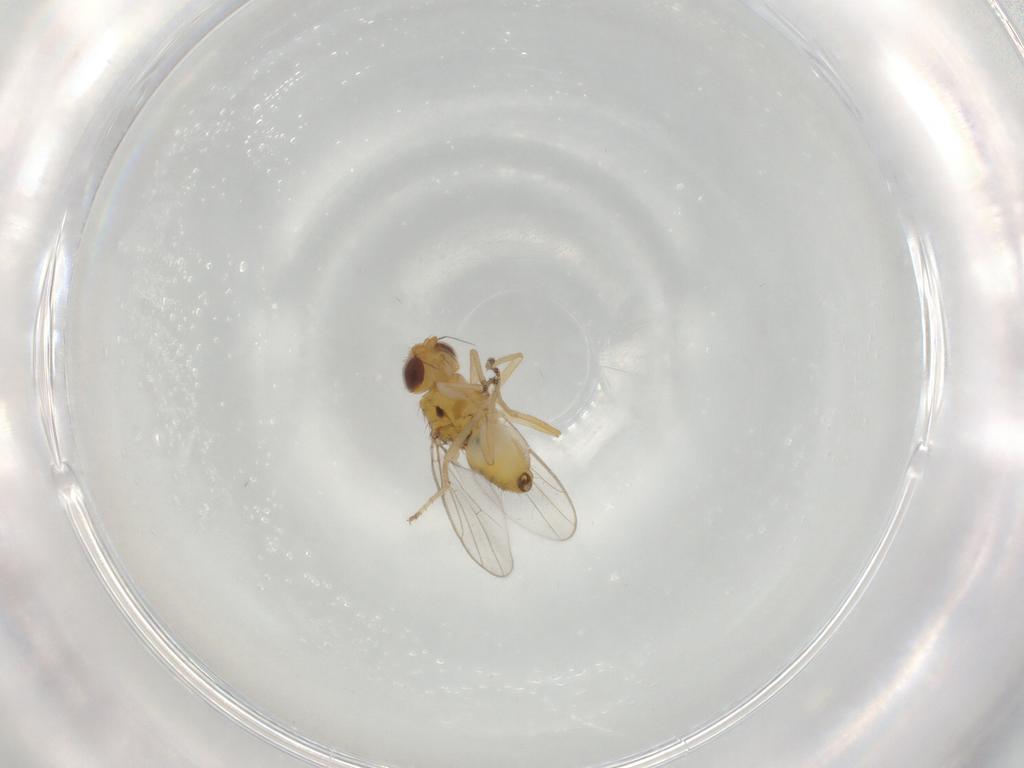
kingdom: Animalia
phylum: Arthropoda
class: Insecta
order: Diptera
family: Chloropidae
